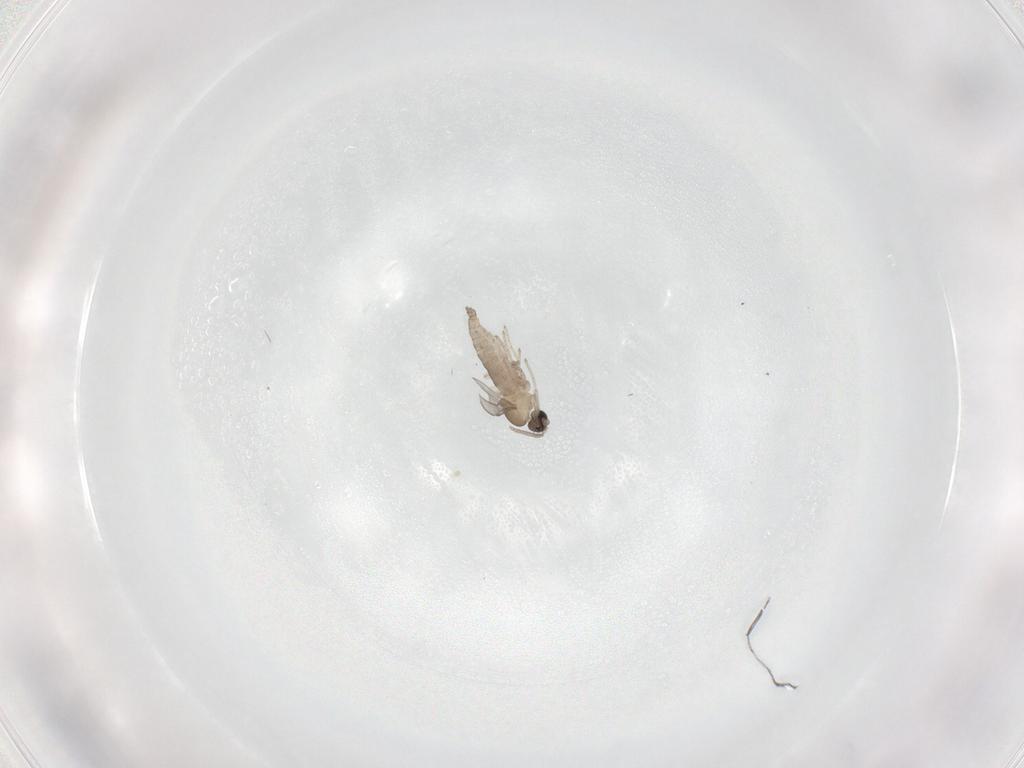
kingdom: Animalia
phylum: Arthropoda
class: Insecta
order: Diptera
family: Cecidomyiidae
